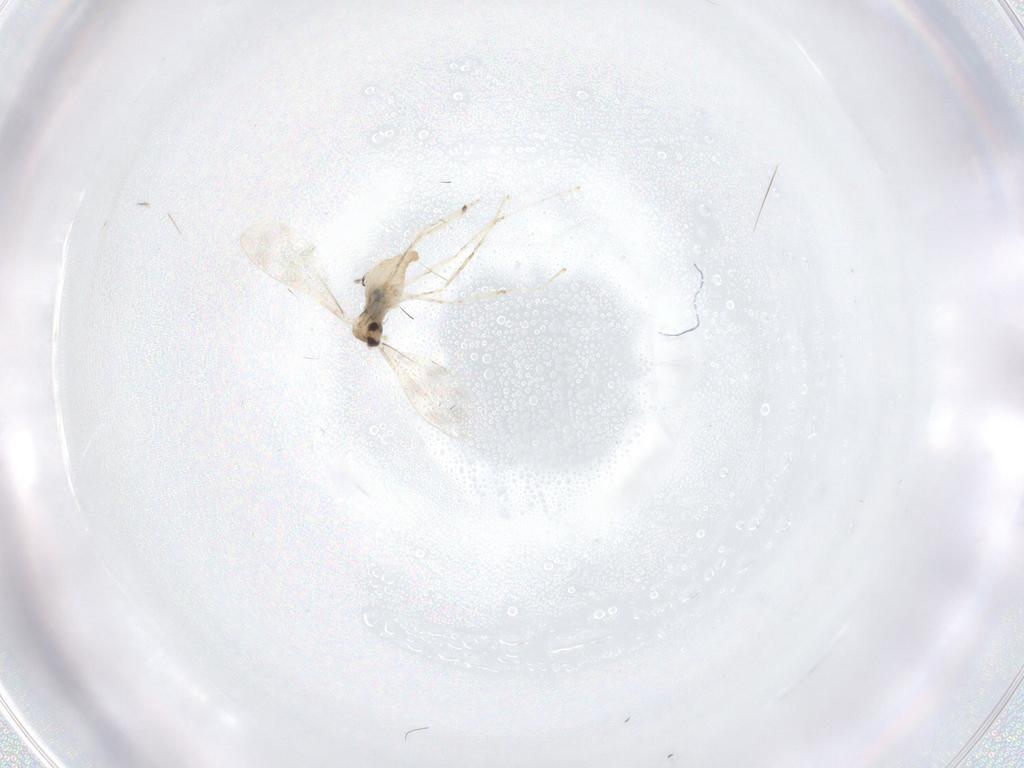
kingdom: Animalia
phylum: Arthropoda
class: Insecta
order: Diptera
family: Cecidomyiidae
